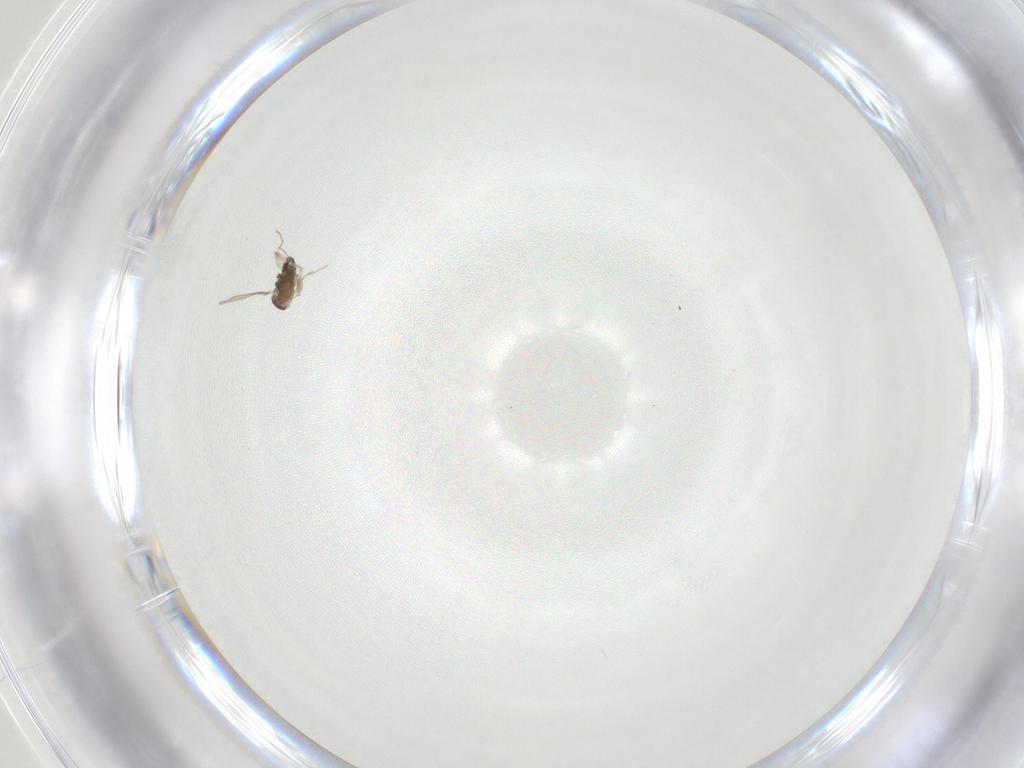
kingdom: Animalia
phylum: Arthropoda
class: Insecta
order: Diptera
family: Cecidomyiidae
